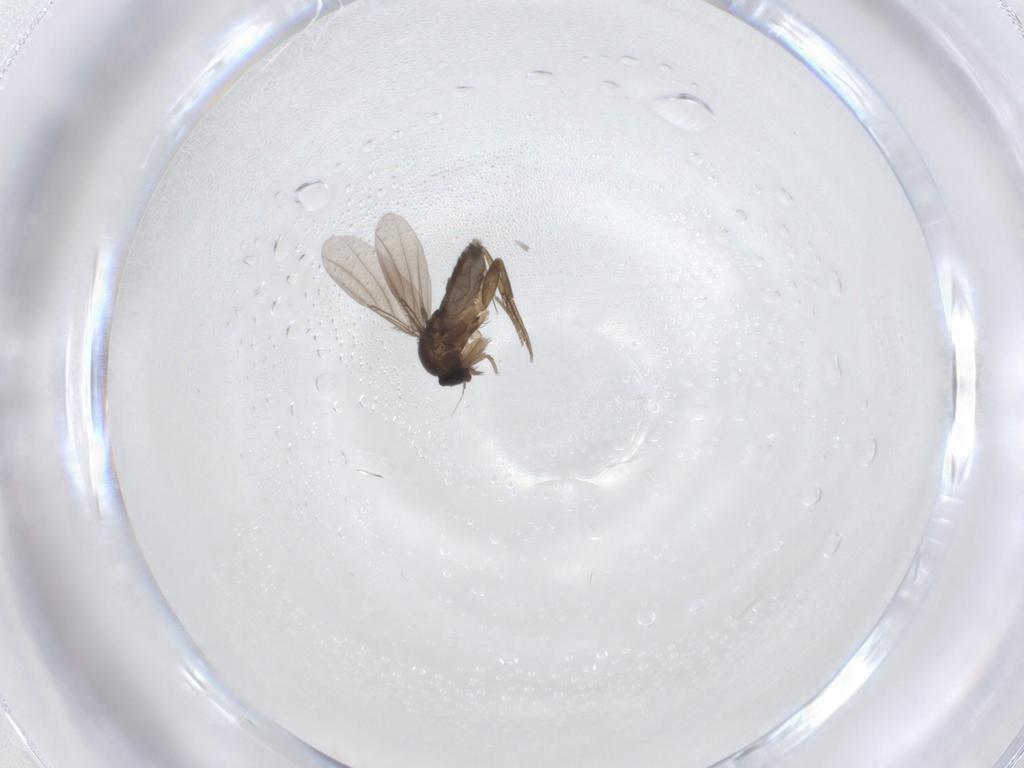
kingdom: Animalia
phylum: Arthropoda
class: Insecta
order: Diptera
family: Phoridae
